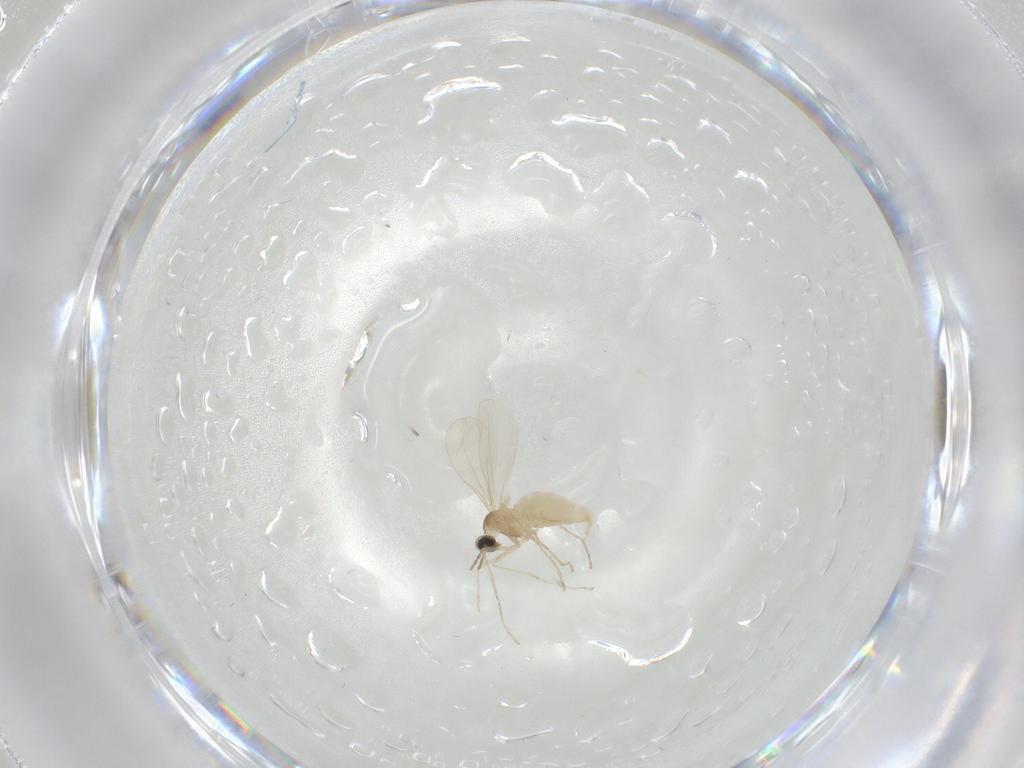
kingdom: Animalia
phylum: Arthropoda
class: Insecta
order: Diptera
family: Cecidomyiidae
